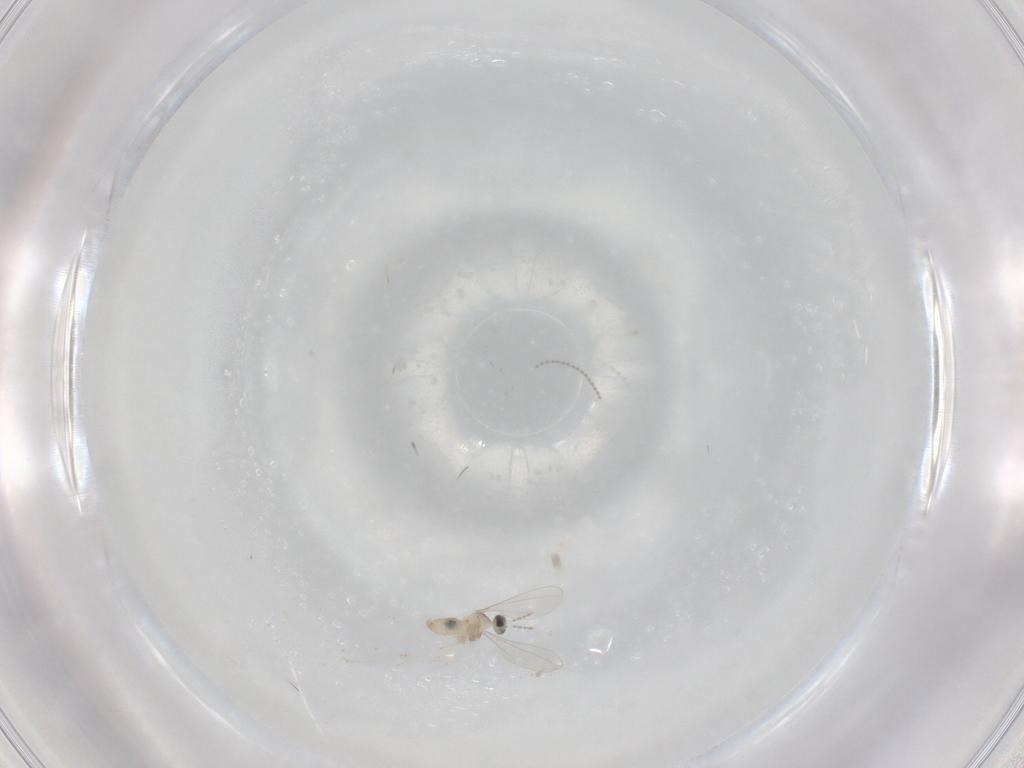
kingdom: Animalia
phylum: Arthropoda
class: Insecta
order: Diptera
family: Cecidomyiidae
